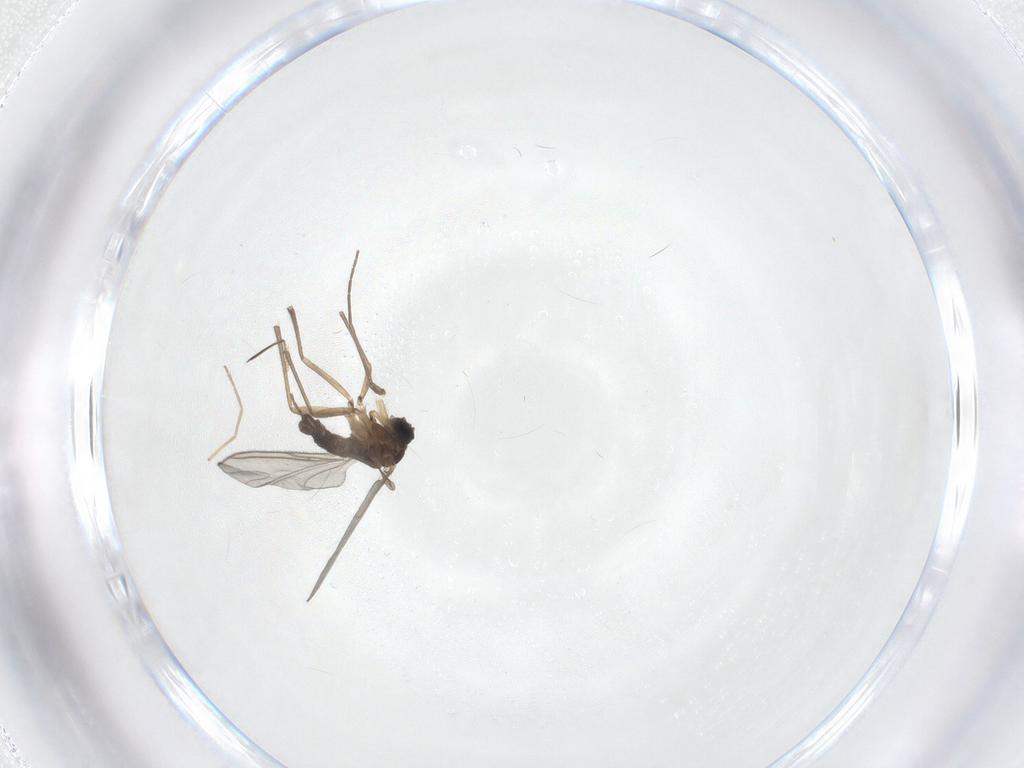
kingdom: Animalia
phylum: Arthropoda
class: Insecta
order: Diptera
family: Sciaridae
